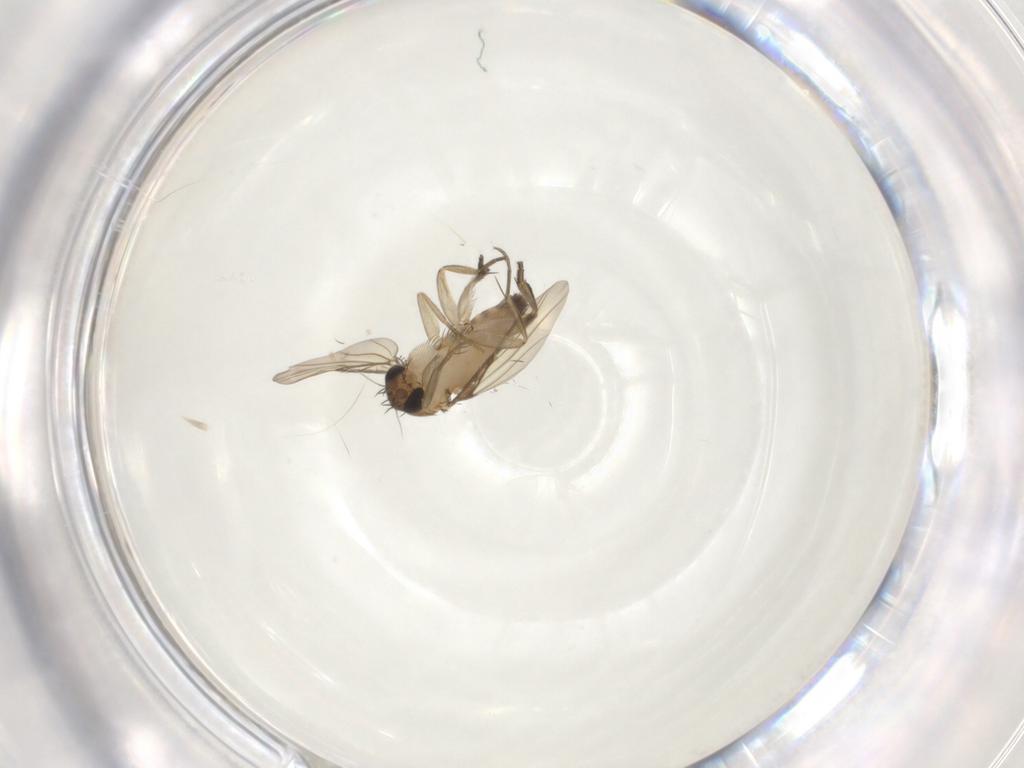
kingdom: Animalia
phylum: Arthropoda
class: Insecta
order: Diptera
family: Phoridae
